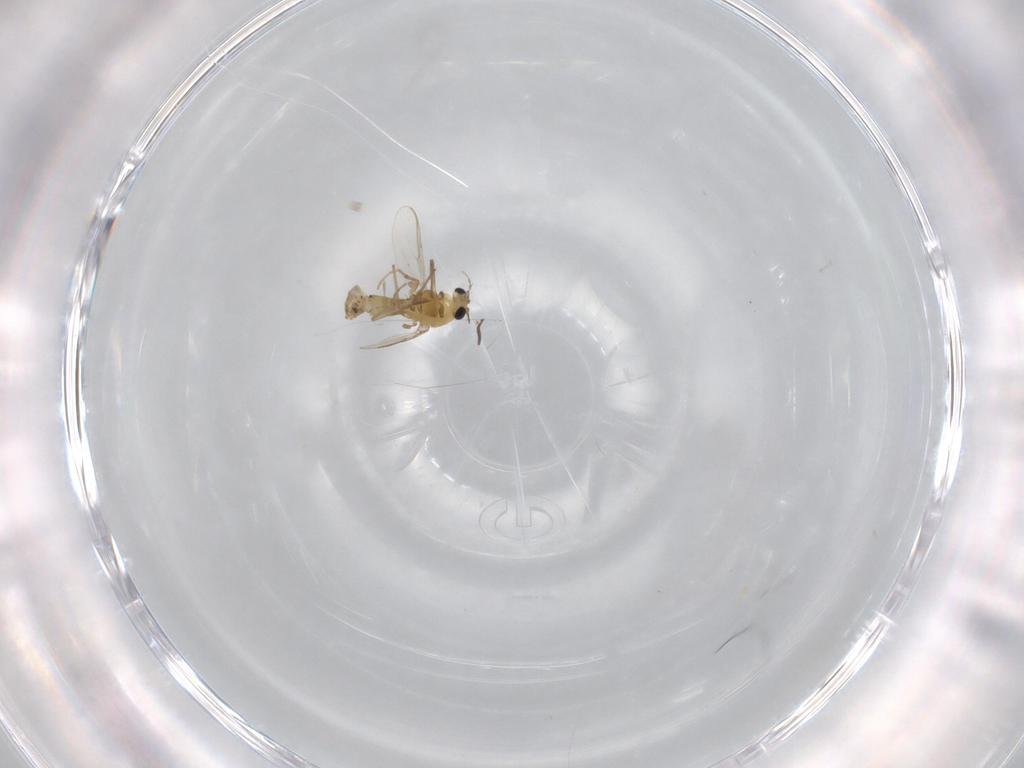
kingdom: Animalia
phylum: Arthropoda
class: Insecta
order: Diptera
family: Chironomidae
